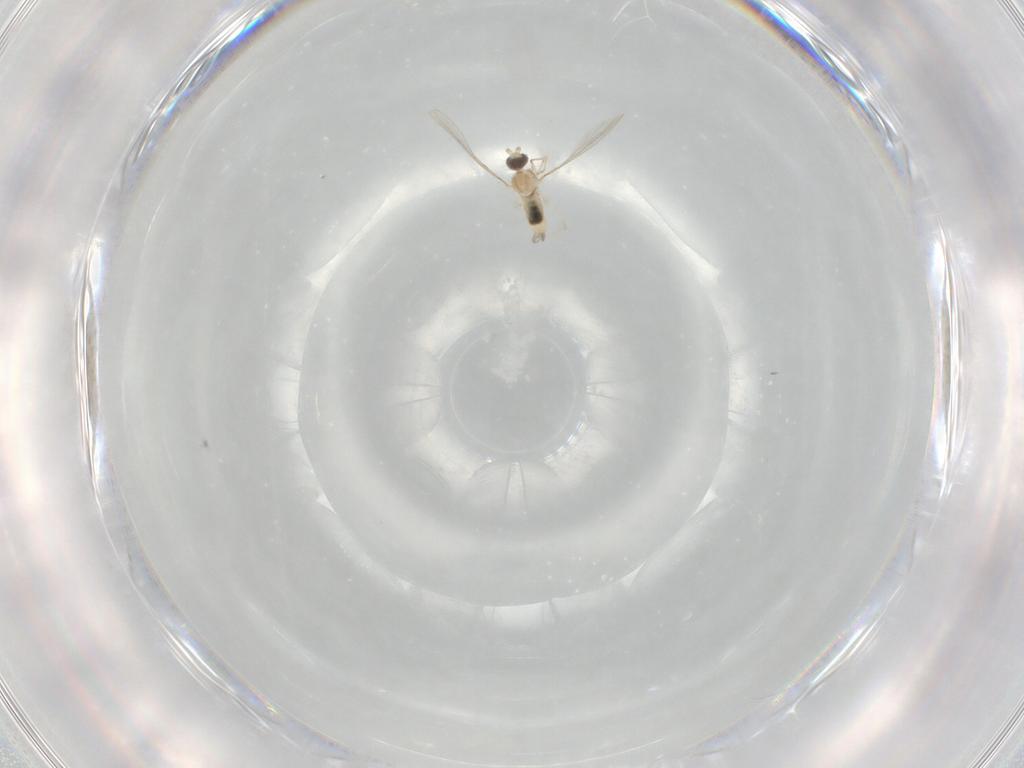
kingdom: Animalia
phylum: Arthropoda
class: Insecta
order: Diptera
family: Ceratopogonidae
